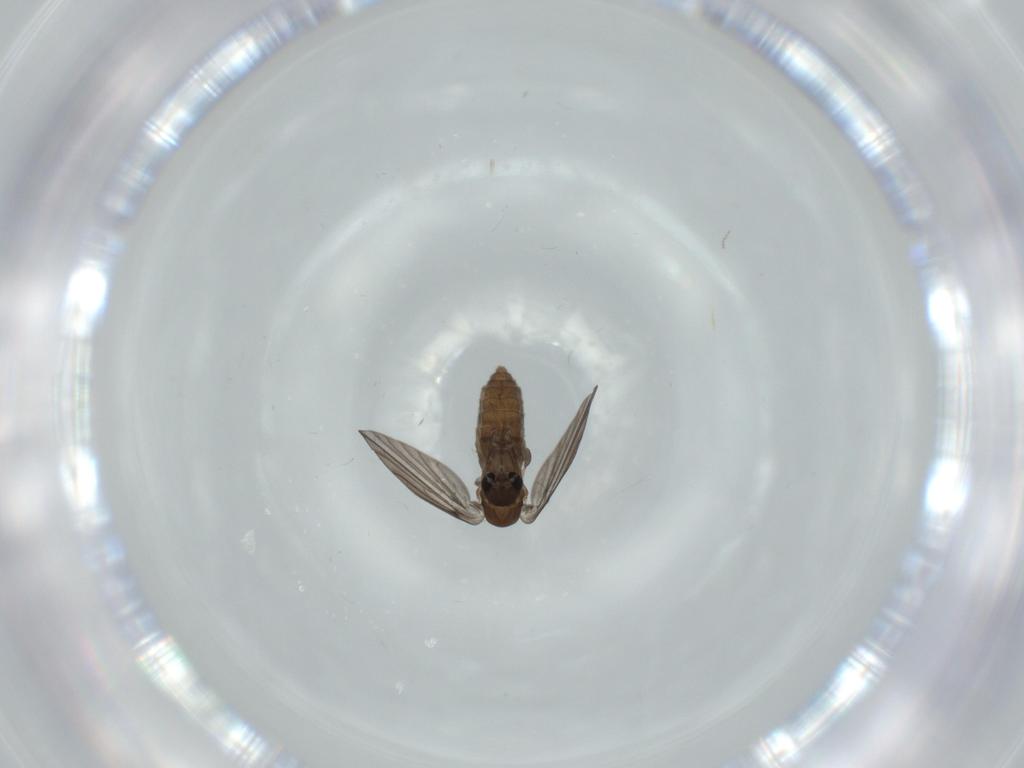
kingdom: Animalia
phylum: Arthropoda
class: Insecta
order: Diptera
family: Psychodidae
